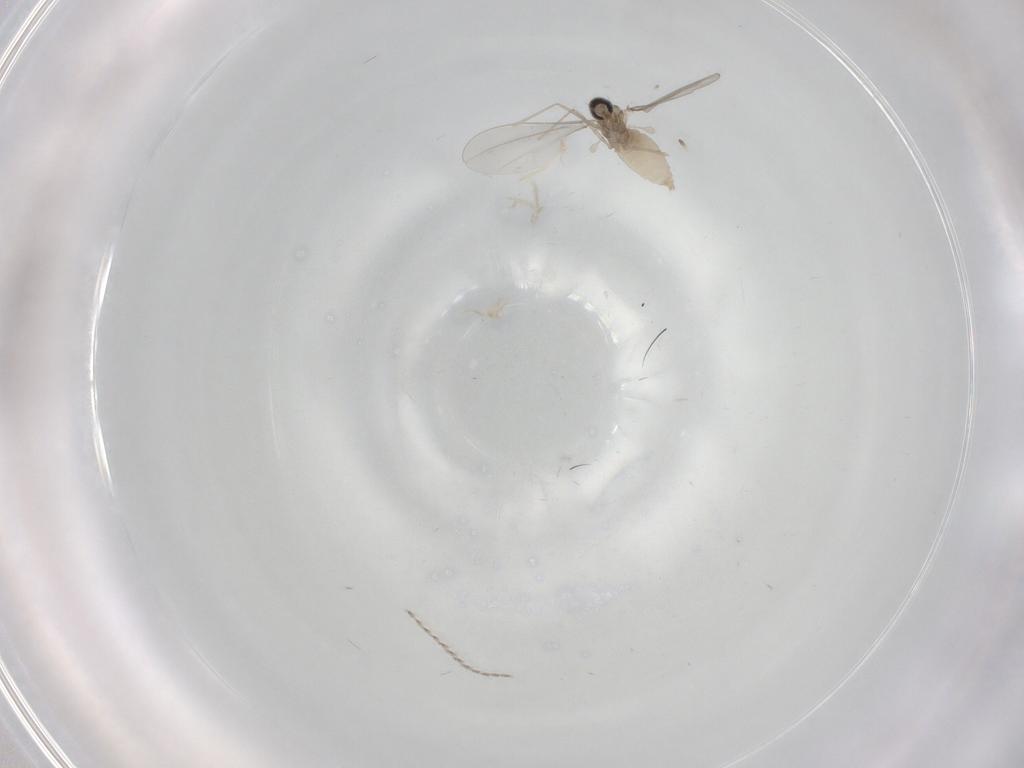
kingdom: Animalia
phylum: Arthropoda
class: Insecta
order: Diptera
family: Cecidomyiidae
